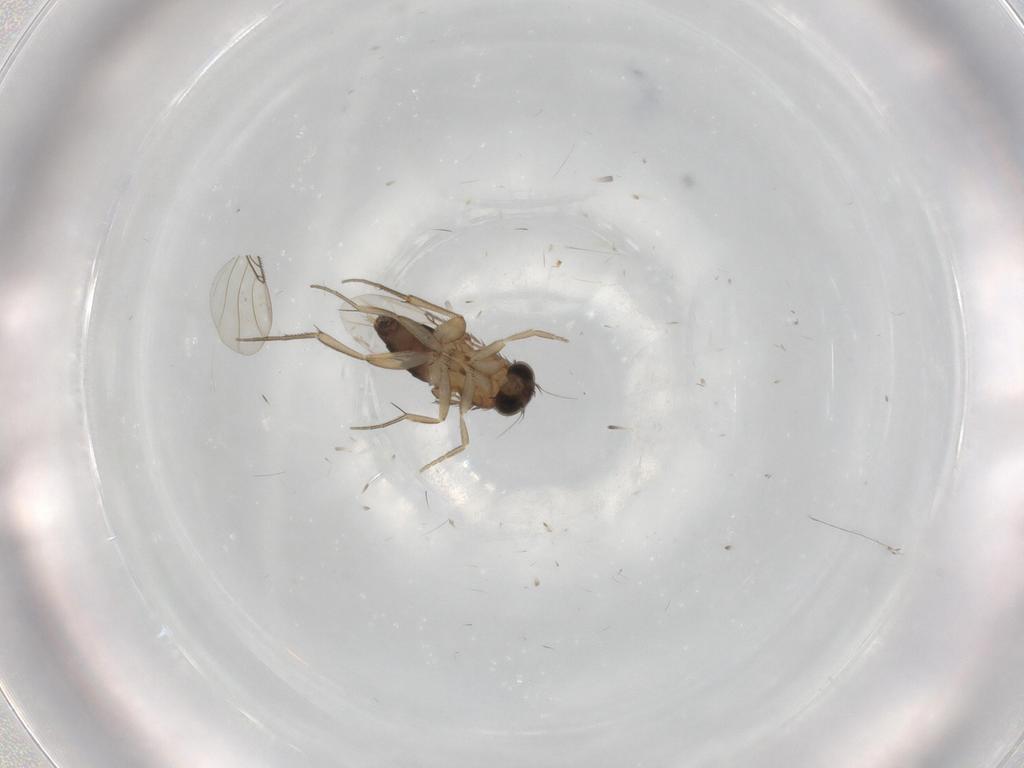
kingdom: Animalia
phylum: Arthropoda
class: Insecta
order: Diptera
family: Phoridae
